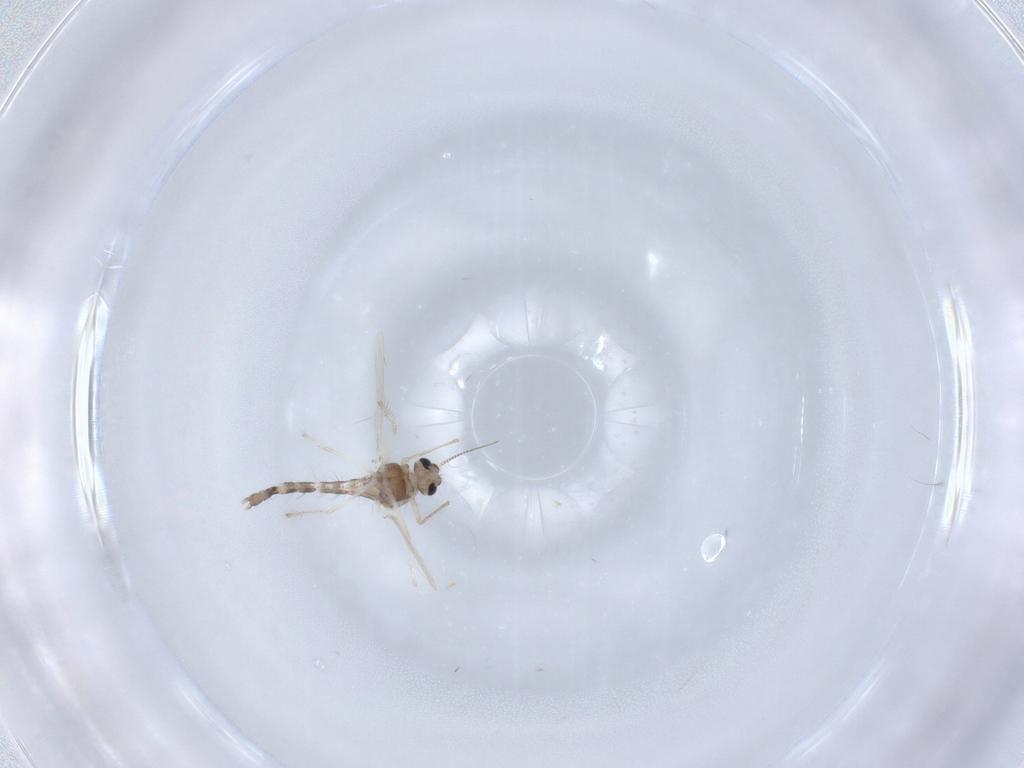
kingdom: Animalia
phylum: Arthropoda
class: Insecta
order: Diptera
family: Chironomidae
